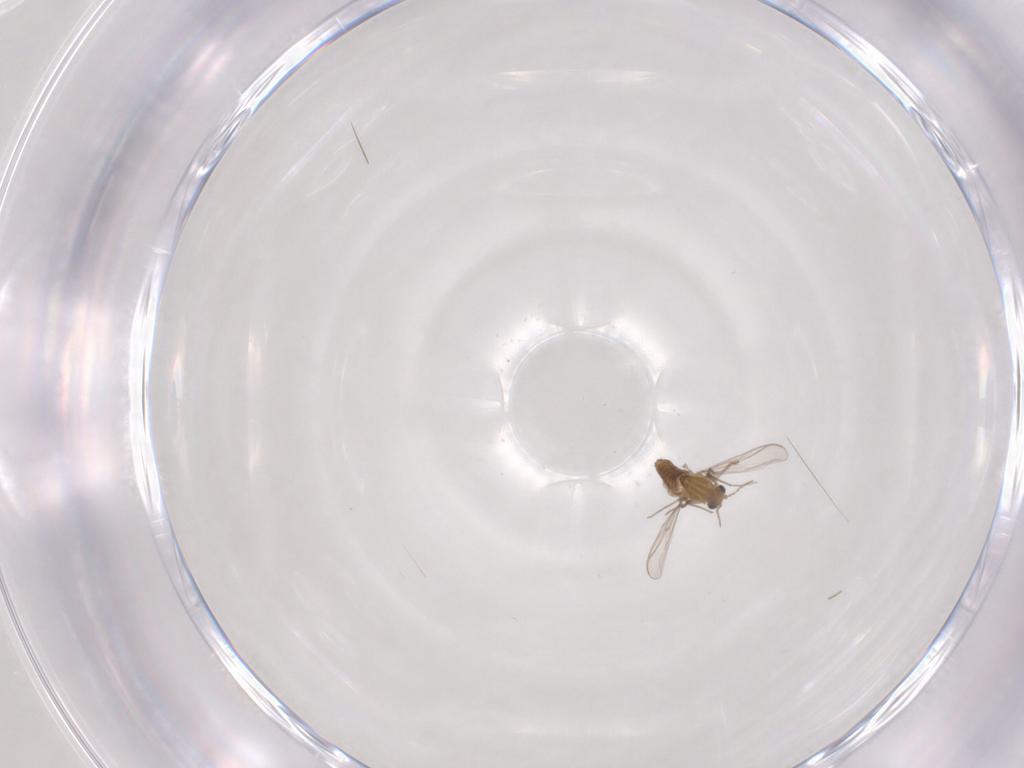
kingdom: Animalia
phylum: Arthropoda
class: Insecta
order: Diptera
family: Chironomidae
